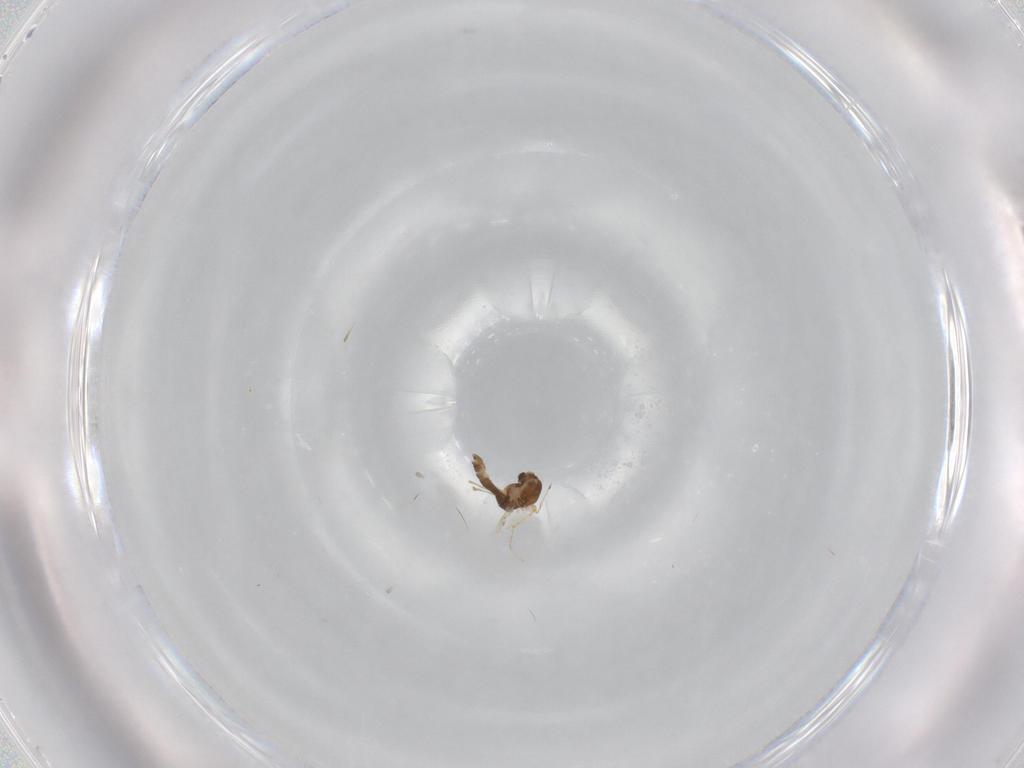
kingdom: Animalia
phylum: Arthropoda
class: Insecta
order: Diptera
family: Chironomidae
